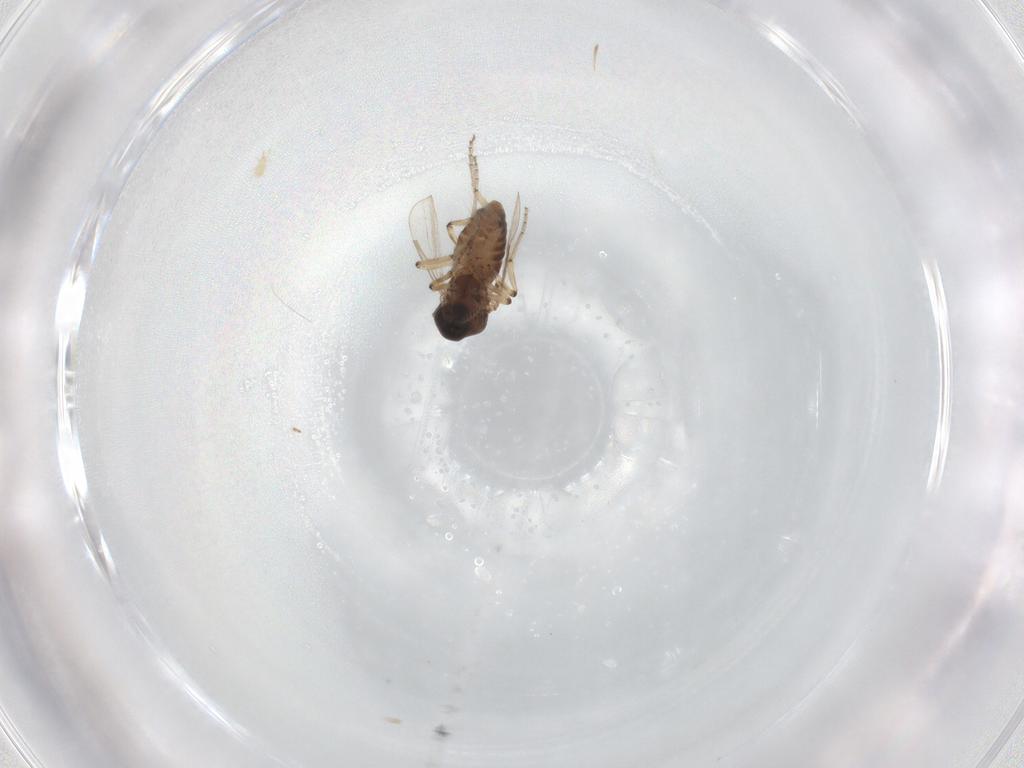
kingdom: Animalia
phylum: Arthropoda
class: Insecta
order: Diptera
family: Ceratopogonidae
